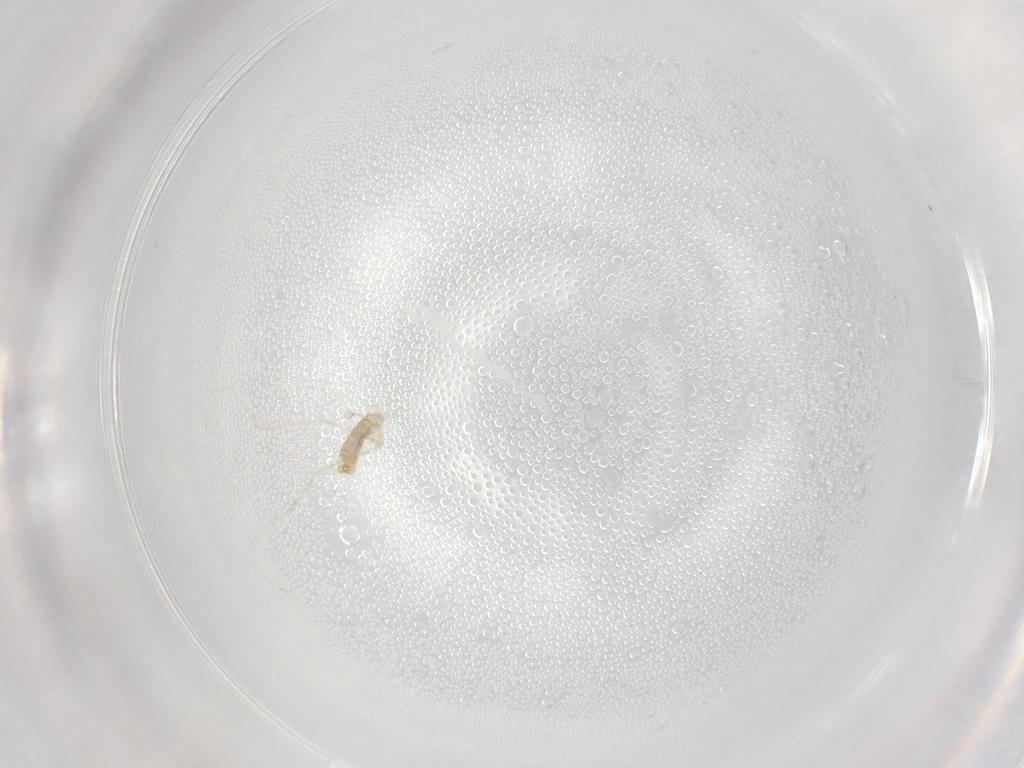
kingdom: Animalia
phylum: Arthropoda
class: Insecta
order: Diptera
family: Cecidomyiidae
